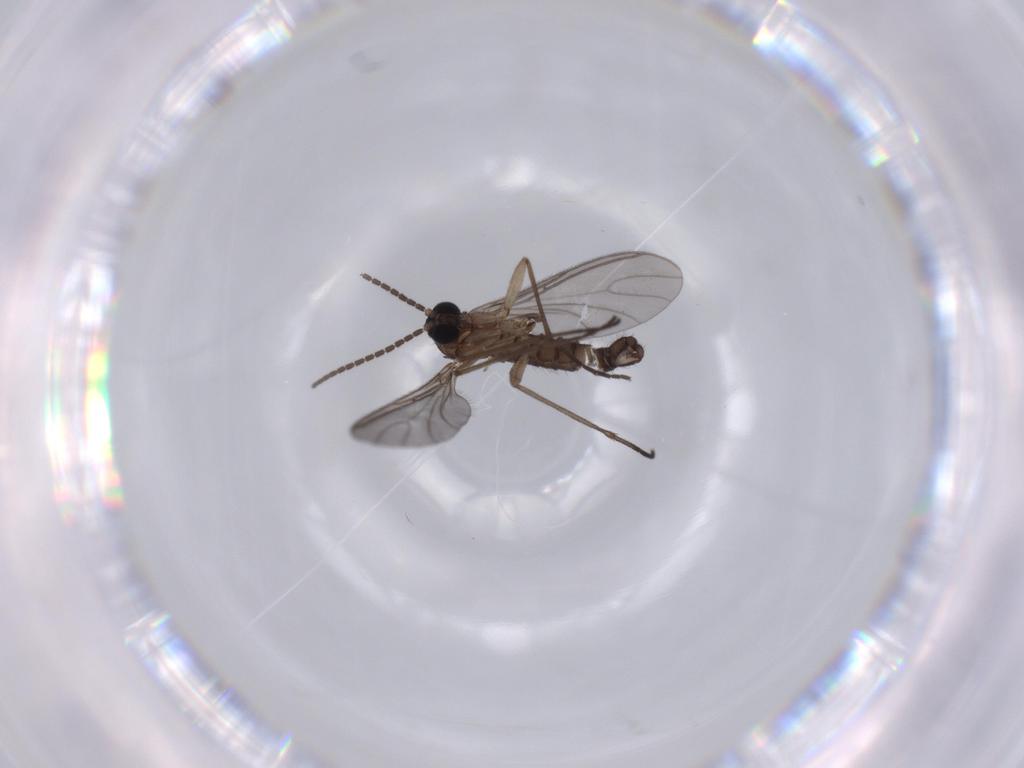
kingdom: Animalia
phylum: Arthropoda
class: Insecta
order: Diptera
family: Sciaridae
